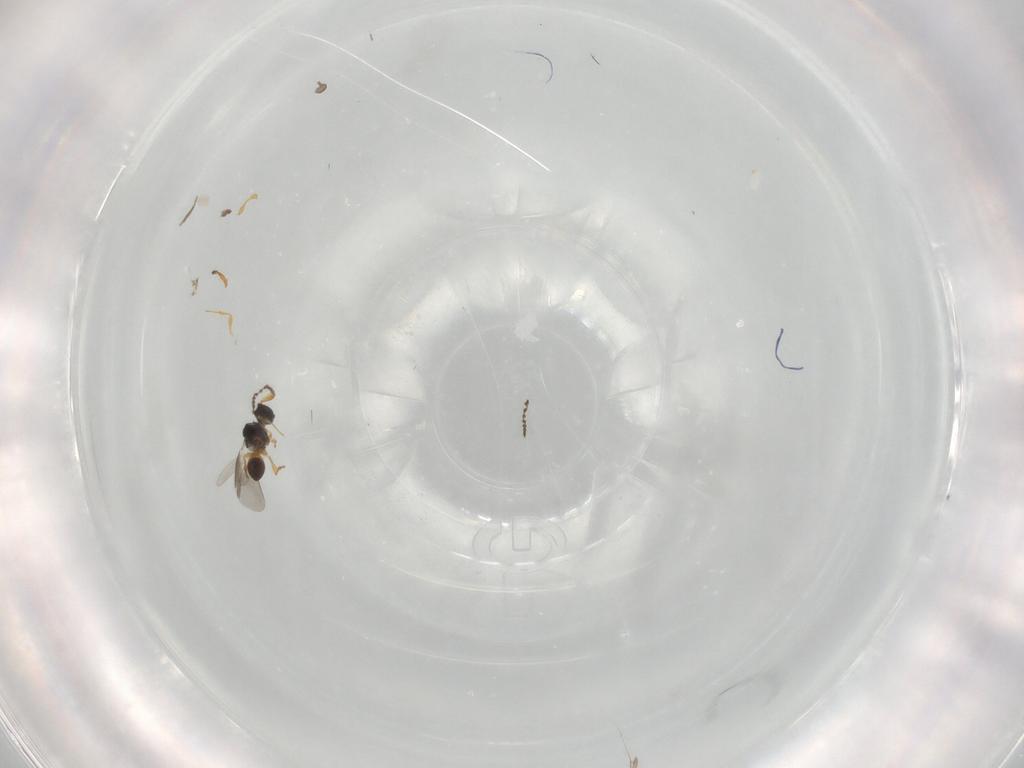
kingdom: Animalia
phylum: Arthropoda
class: Insecta
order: Hymenoptera
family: Platygastridae
